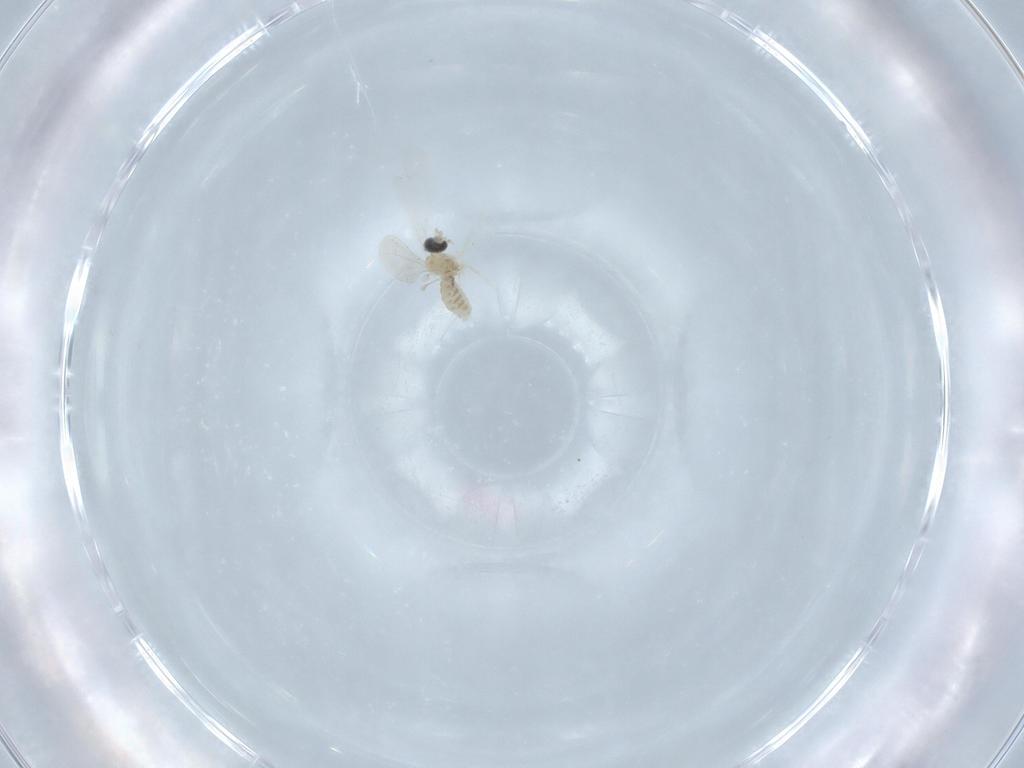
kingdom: Animalia
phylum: Arthropoda
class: Insecta
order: Diptera
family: Cecidomyiidae
